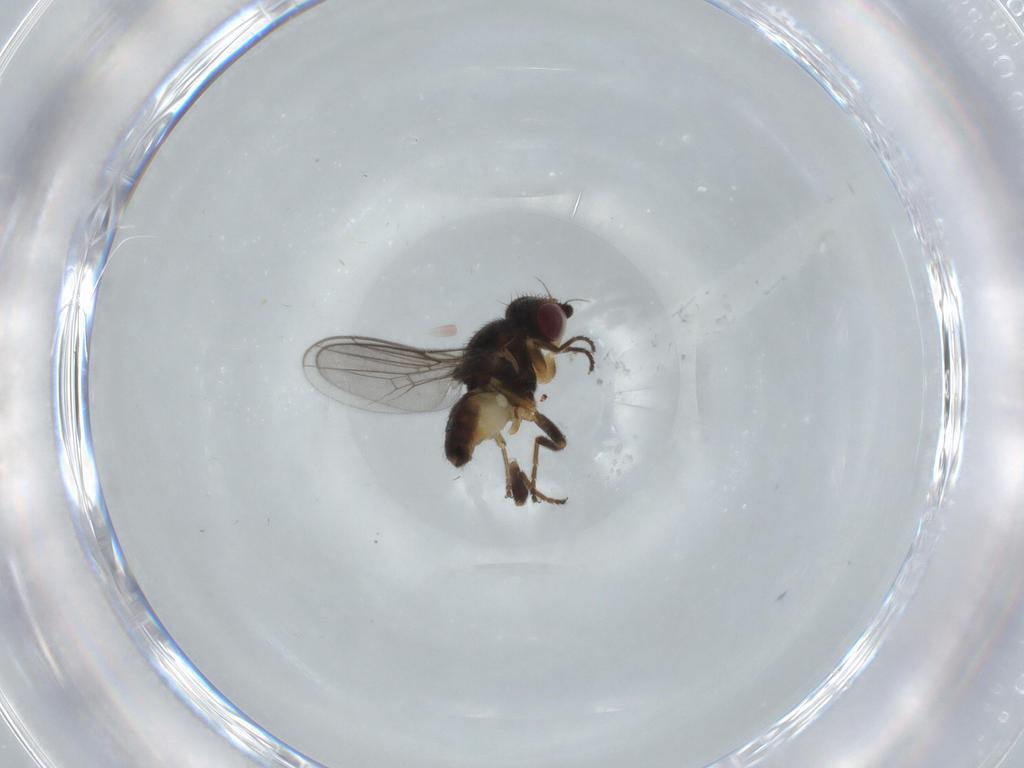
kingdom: Animalia
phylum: Arthropoda
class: Insecta
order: Diptera
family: Chloropidae
